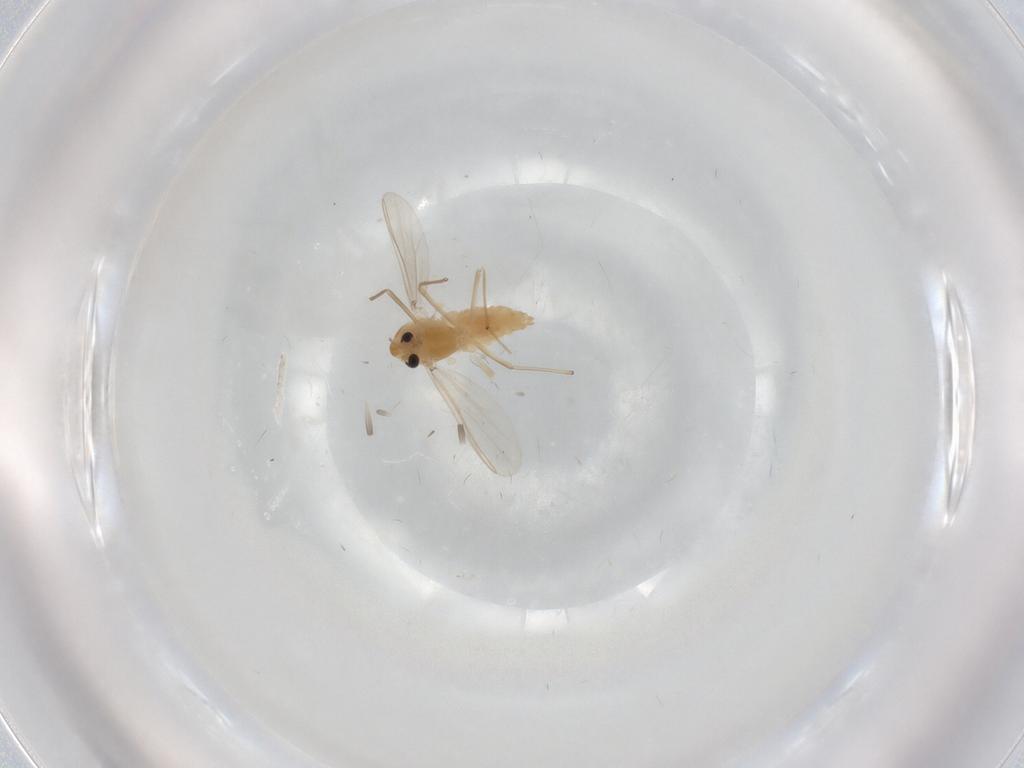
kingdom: Animalia
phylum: Arthropoda
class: Insecta
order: Diptera
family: Chironomidae
